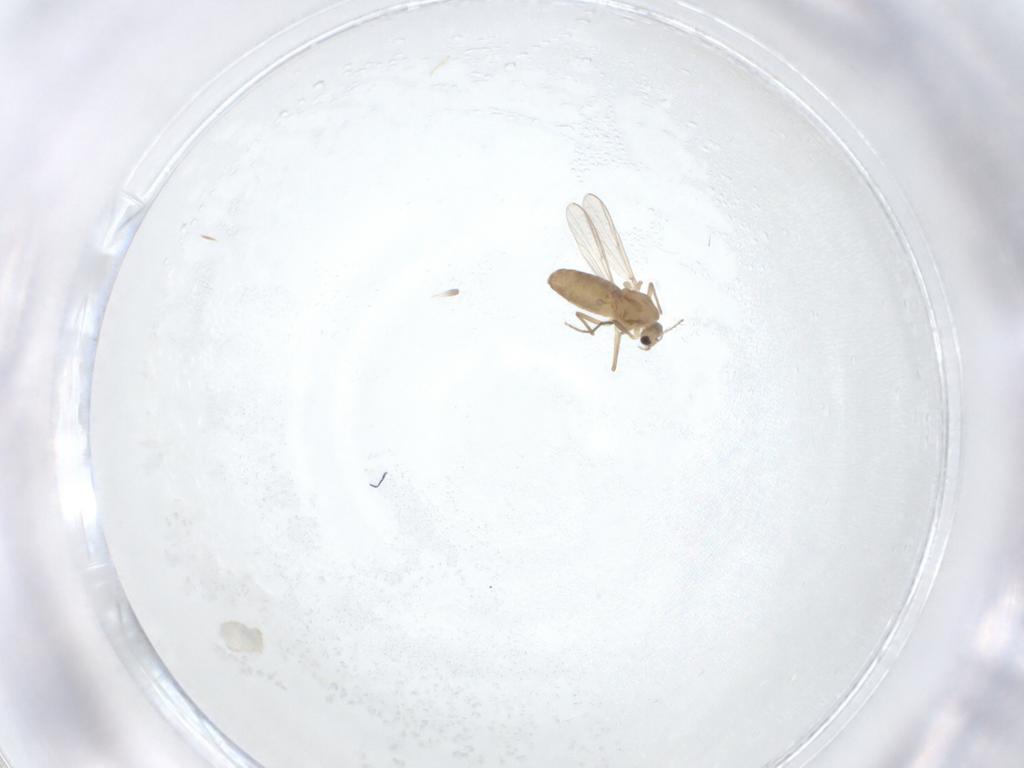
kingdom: Animalia
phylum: Arthropoda
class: Insecta
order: Diptera
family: Chironomidae
